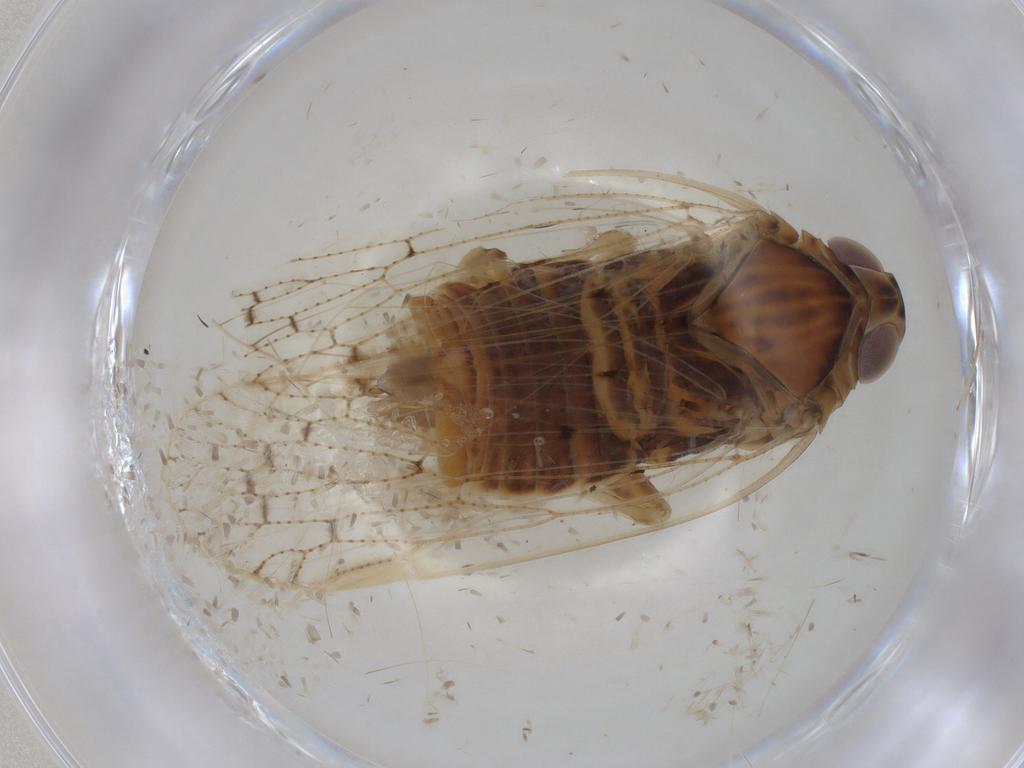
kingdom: Animalia
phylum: Arthropoda
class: Insecta
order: Hemiptera
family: Cixiidae
